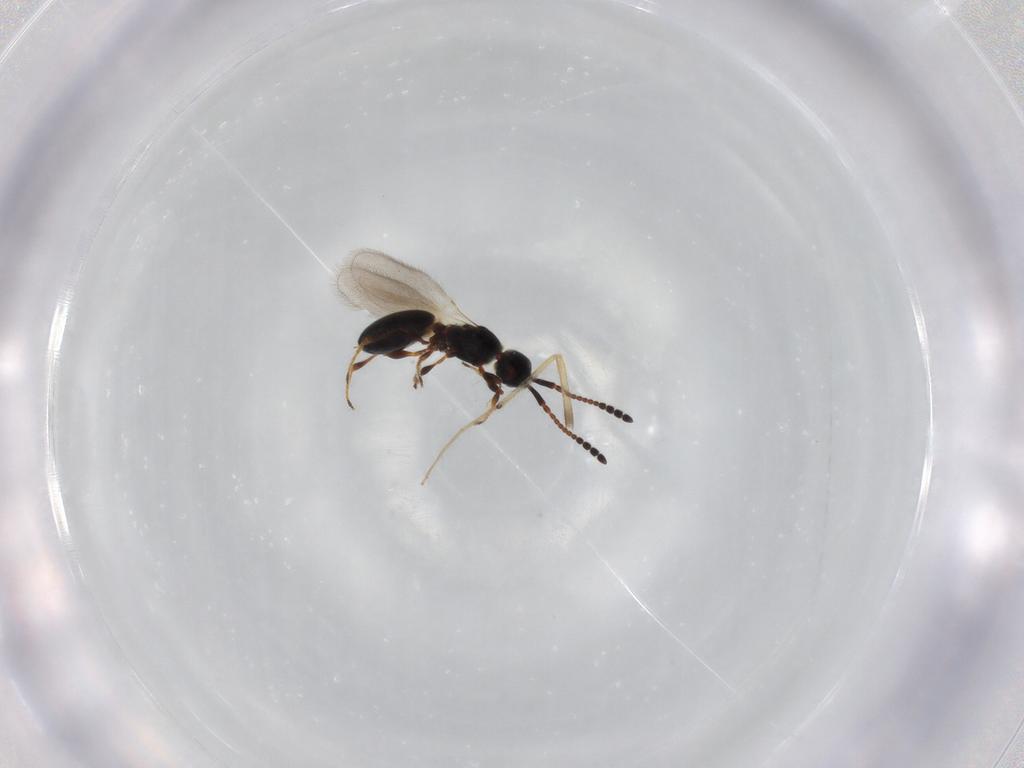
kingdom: Animalia
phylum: Arthropoda
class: Insecta
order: Hymenoptera
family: Diapriidae
